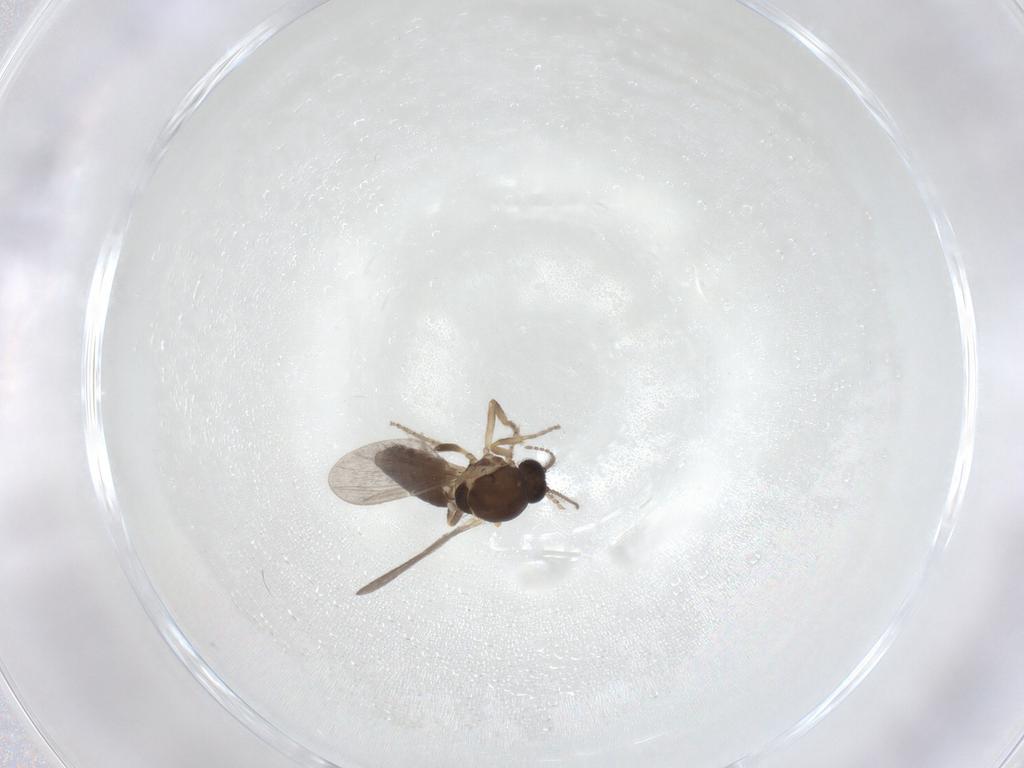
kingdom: Animalia
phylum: Arthropoda
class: Insecta
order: Diptera
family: Ceratopogonidae
